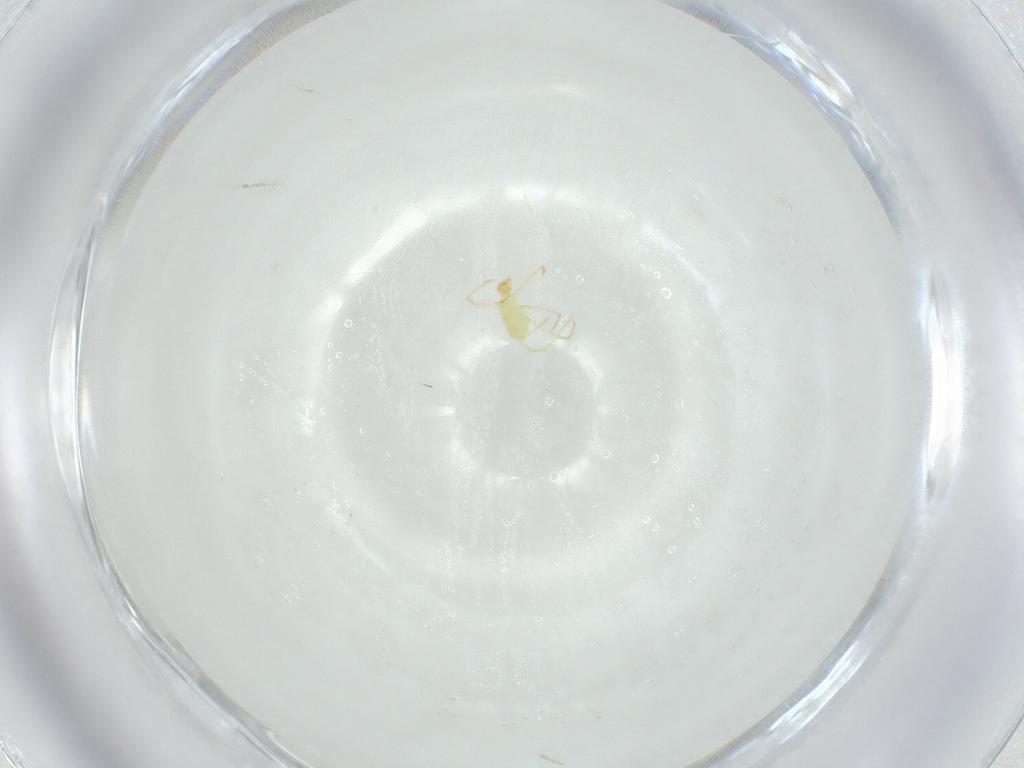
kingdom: Animalia
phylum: Arthropoda
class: Arachnida
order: Trombidiformes
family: Erythraeidae
